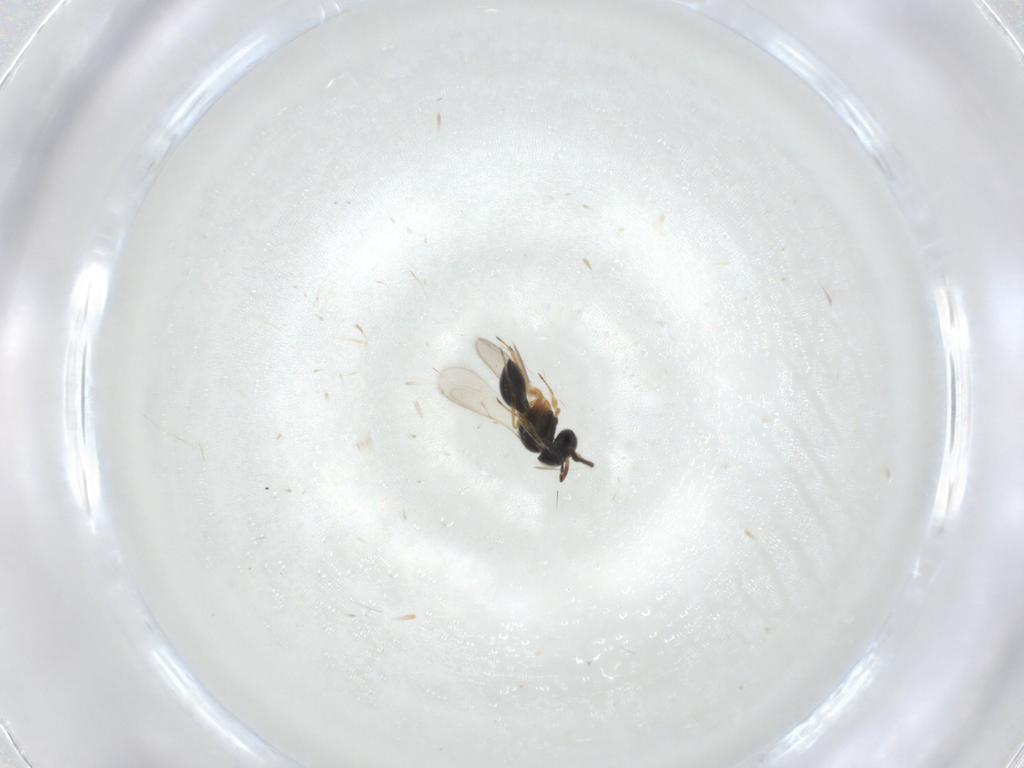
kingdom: Animalia
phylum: Arthropoda
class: Insecta
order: Hymenoptera
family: Scelionidae
